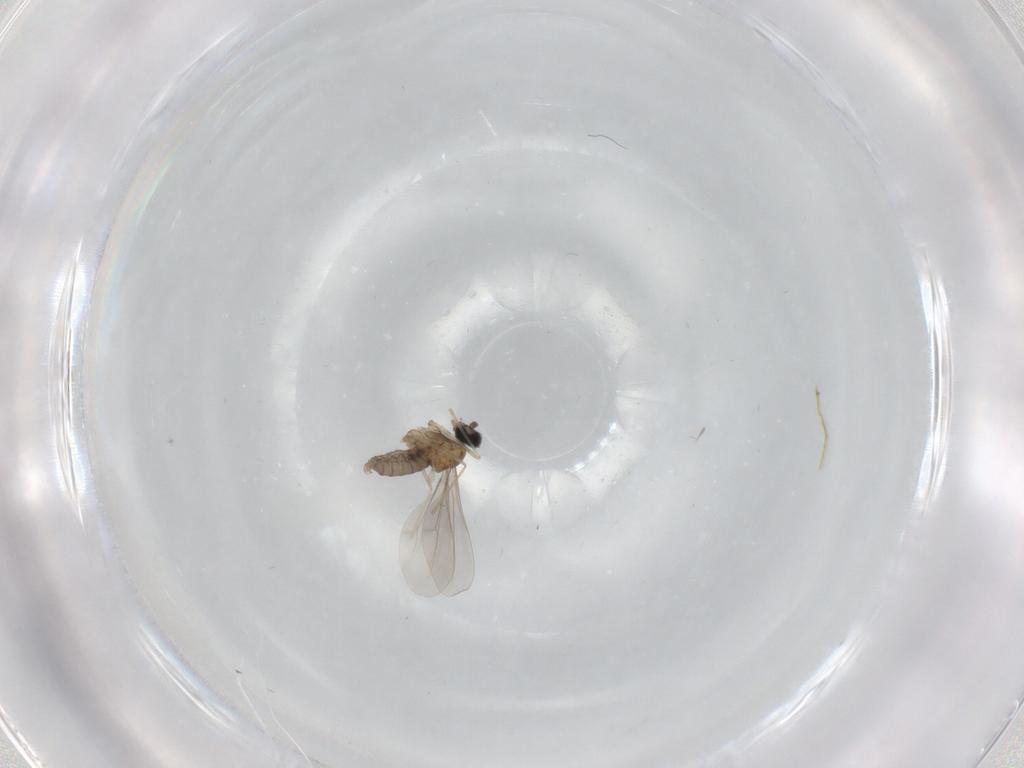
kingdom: Animalia
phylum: Arthropoda
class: Insecta
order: Diptera
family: Cecidomyiidae
